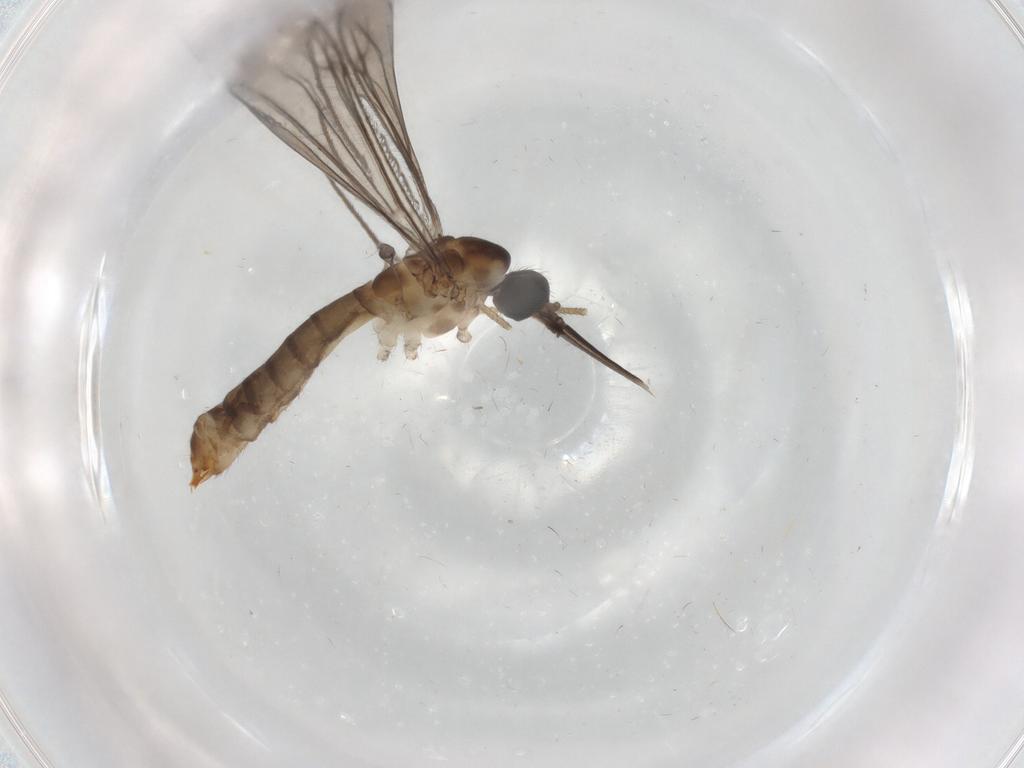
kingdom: Animalia
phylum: Arthropoda
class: Insecta
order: Diptera
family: Limoniidae
